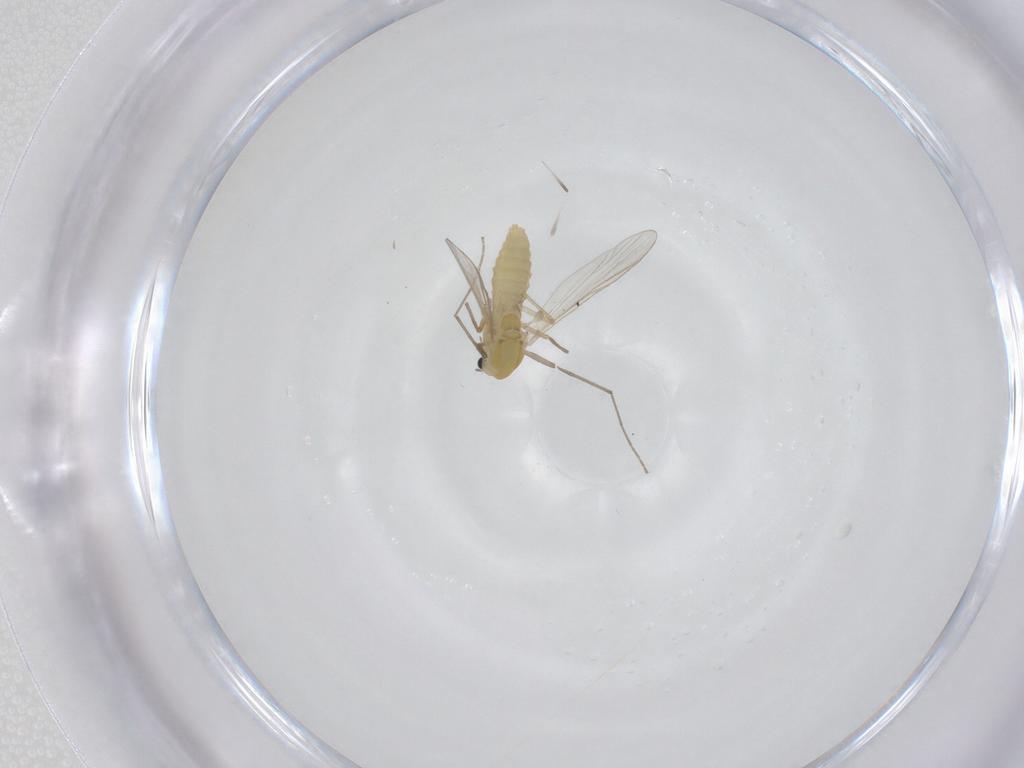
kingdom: Animalia
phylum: Arthropoda
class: Insecta
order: Diptera
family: Chironomidae
